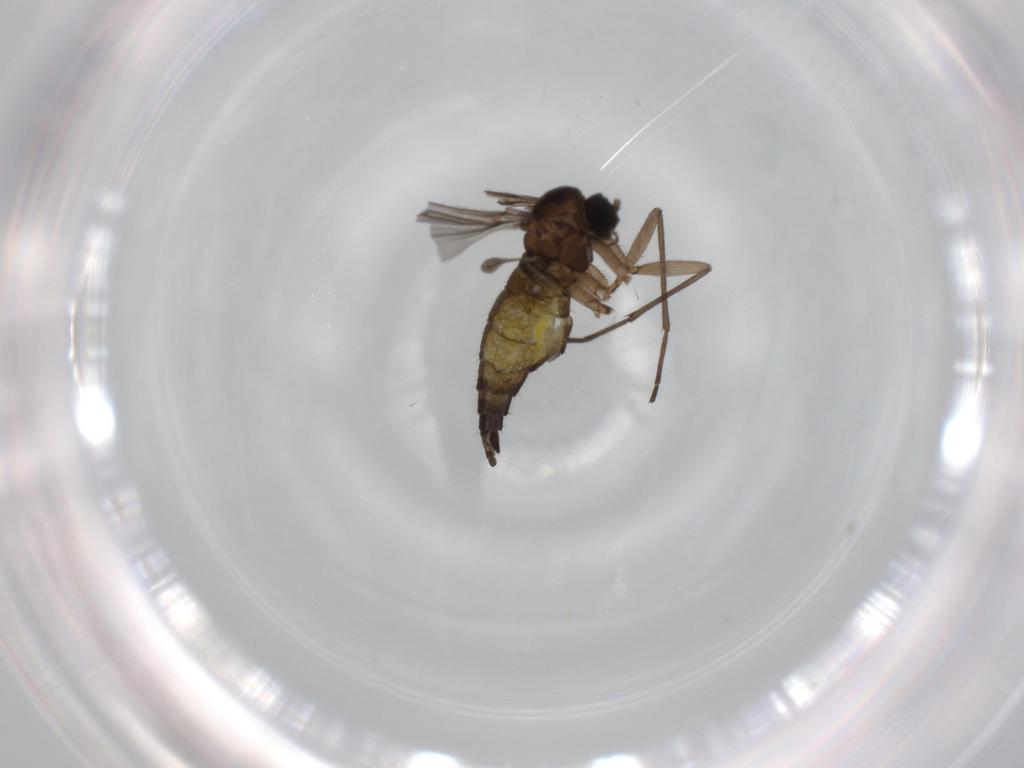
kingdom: Animalia
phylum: Arthropoda
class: Insecta
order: Diptera
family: Sciaridae
